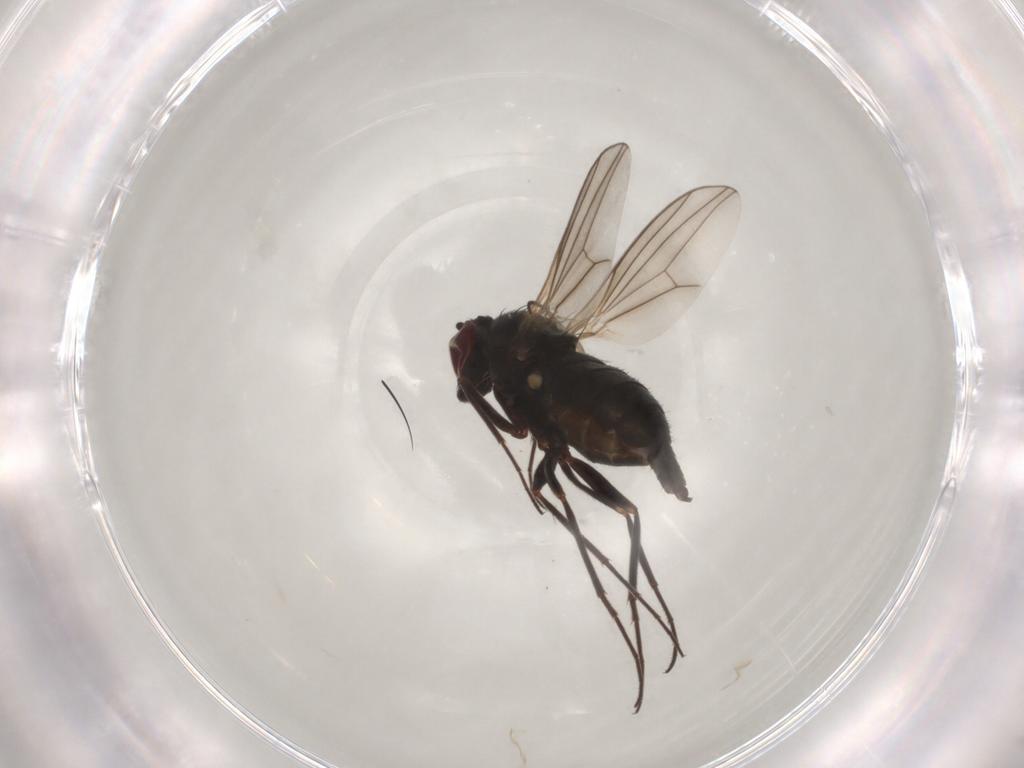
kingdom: Animalia
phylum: Arthropoda
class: Insecta
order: Diptera
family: Dolichopodidae
